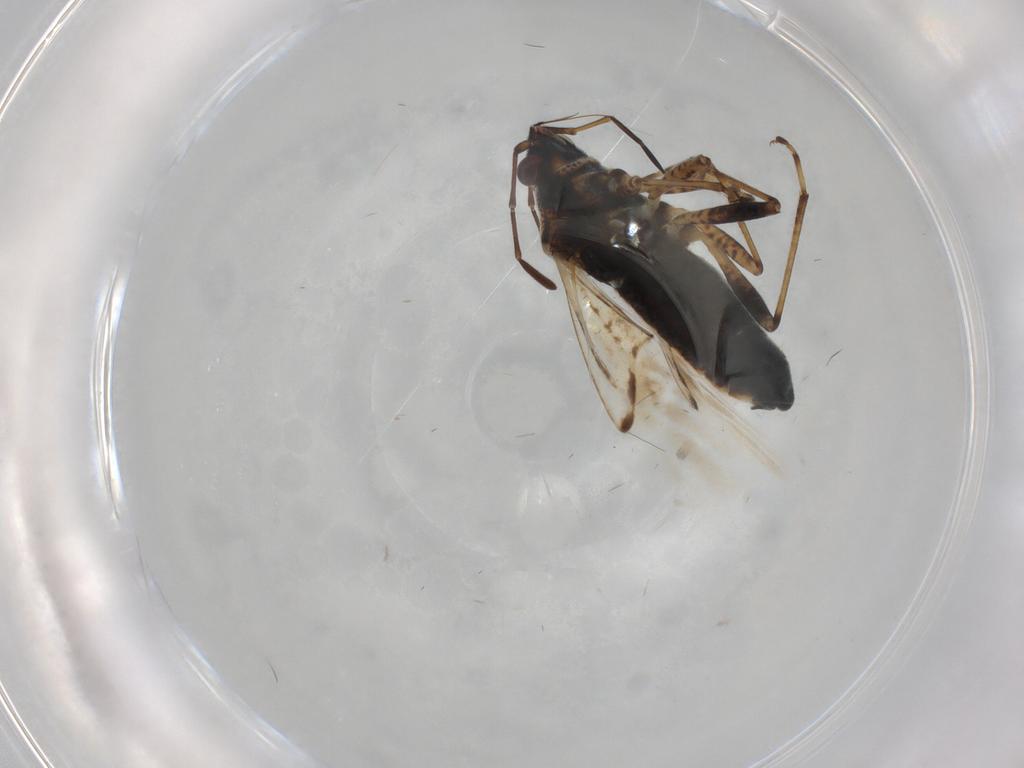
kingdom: Animalia
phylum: Arthropoda
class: Insecta
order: Hemiptera
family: Lygaeidae
